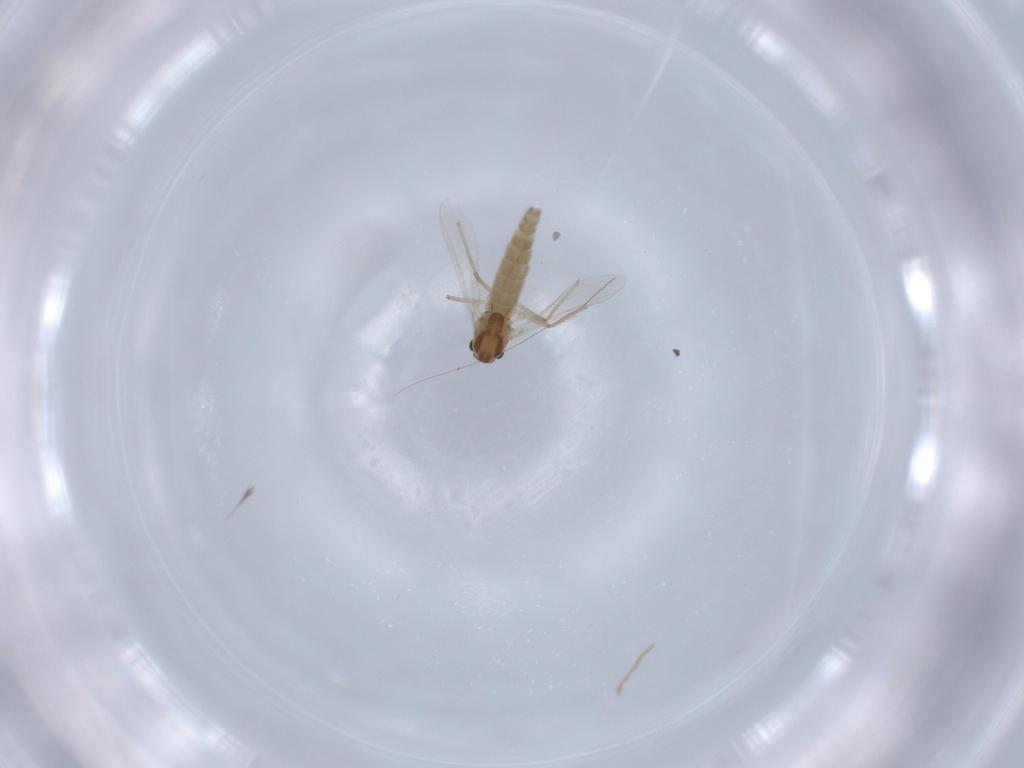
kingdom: Animalia
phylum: Arthropoda
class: Insecta
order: Diptera
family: Chironomidae
